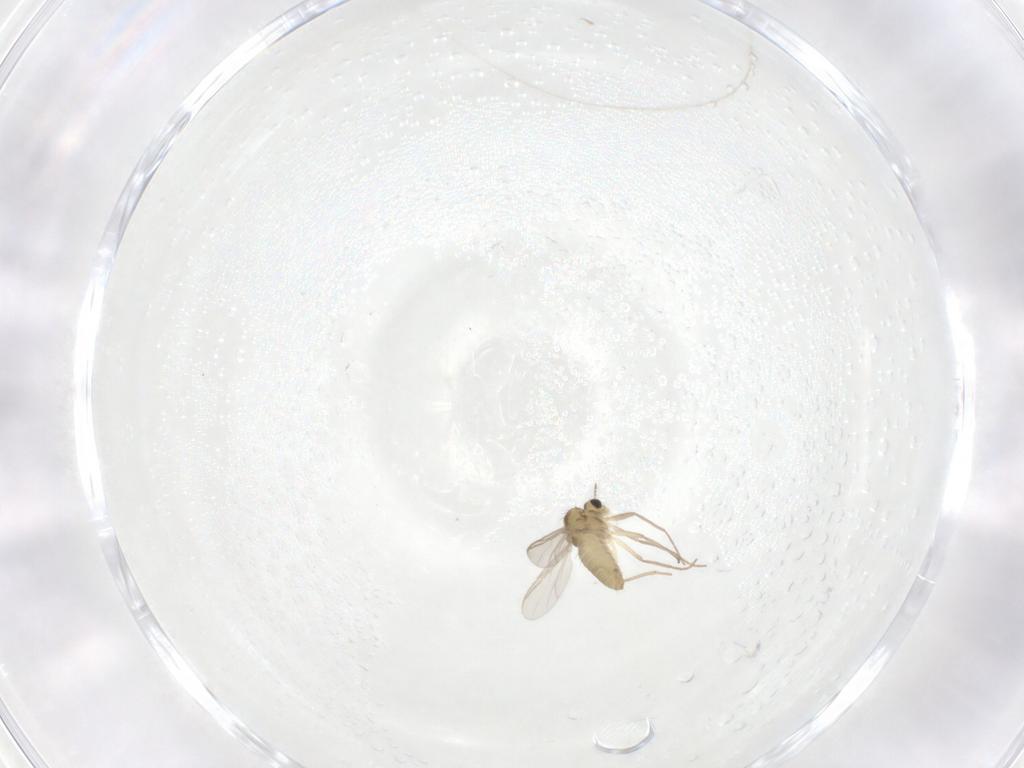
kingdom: Animalia
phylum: Arthropoda
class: Insecta
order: Diptera
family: Chironomidae
